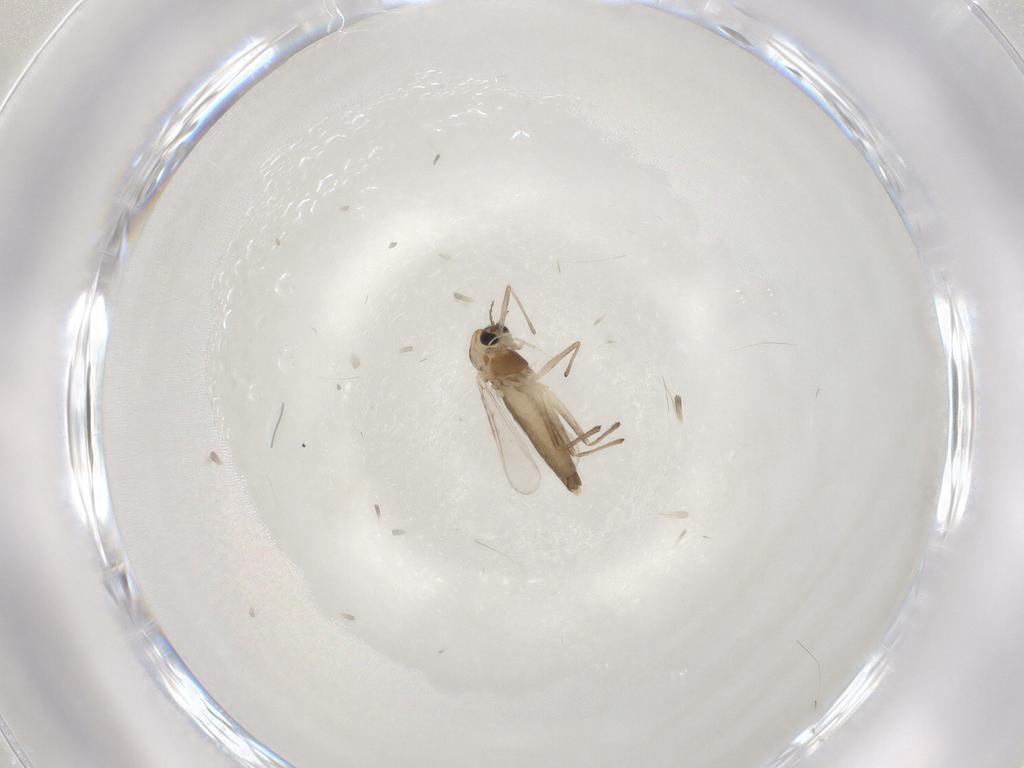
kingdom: Animalia
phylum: Arthropoda
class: Insecta
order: Diptera
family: Chironomidae
